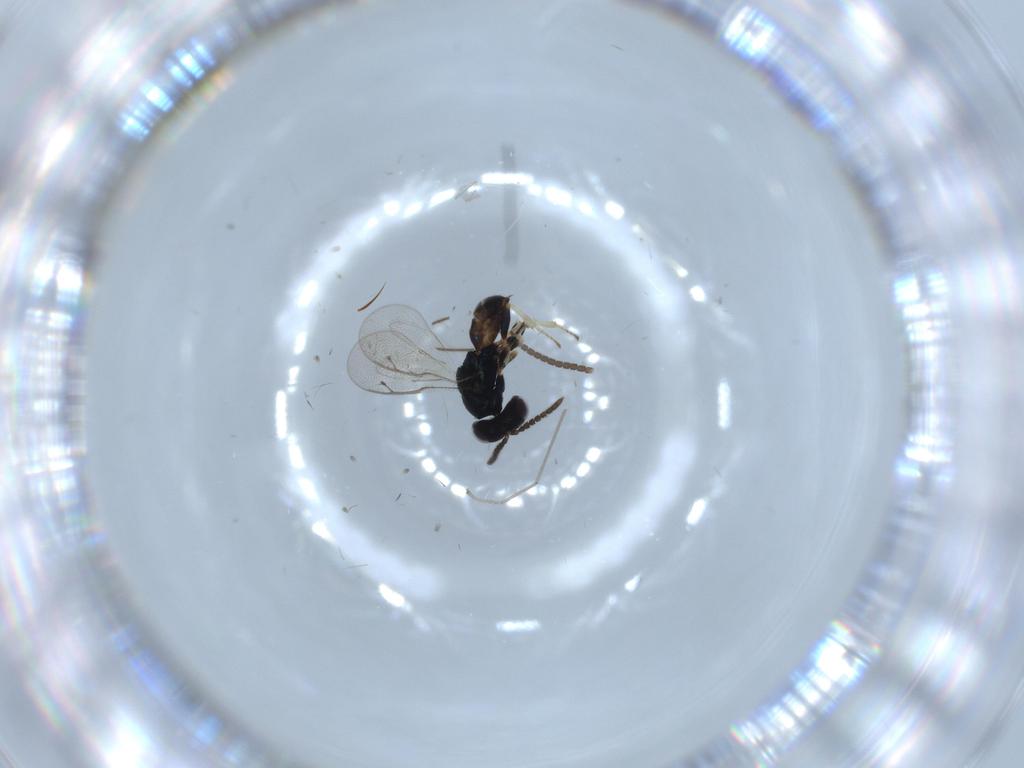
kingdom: Animalia
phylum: Arthropoda
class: Insecta
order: Hymenoptera
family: Pteromalidae
